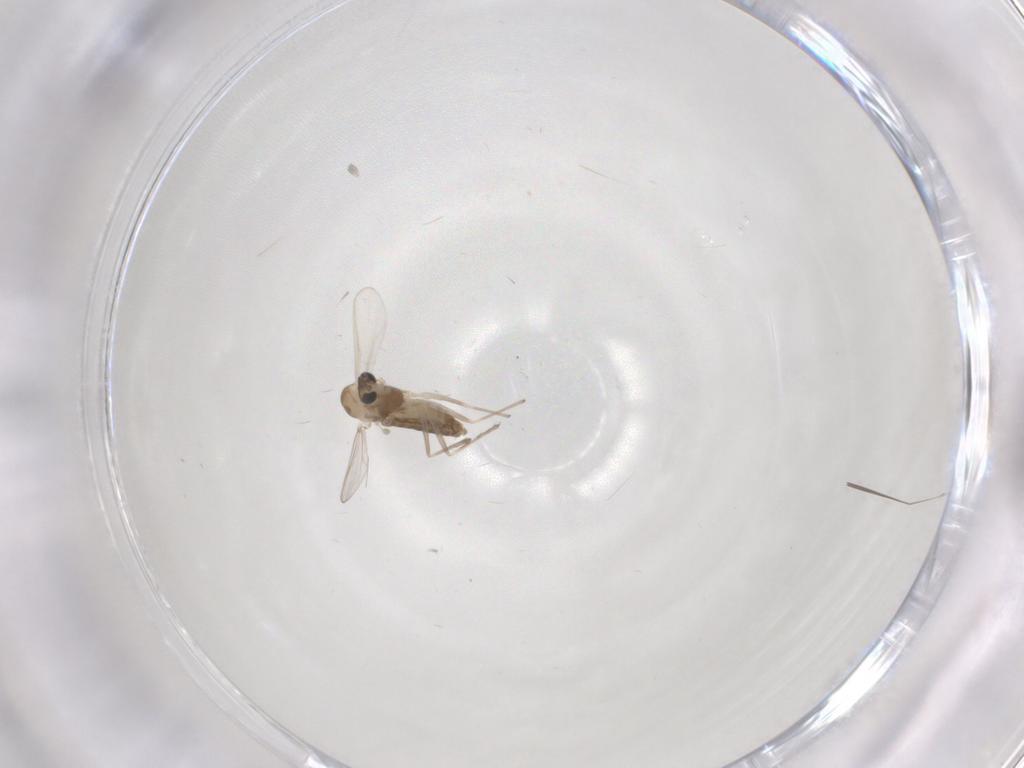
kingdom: Animalia
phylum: Arthropoda
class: Insecta
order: Diptera
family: Chironomidae
